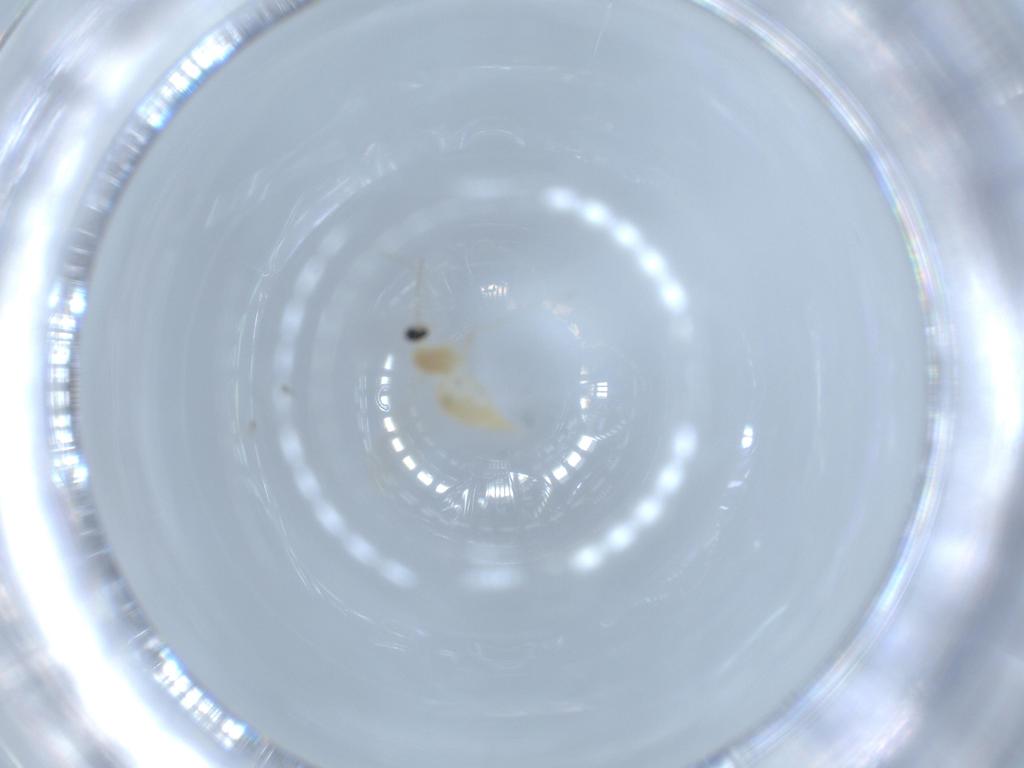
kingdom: Animalia
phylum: Arthropoda
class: Insecta
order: Diptera
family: Cecidomyiidae
